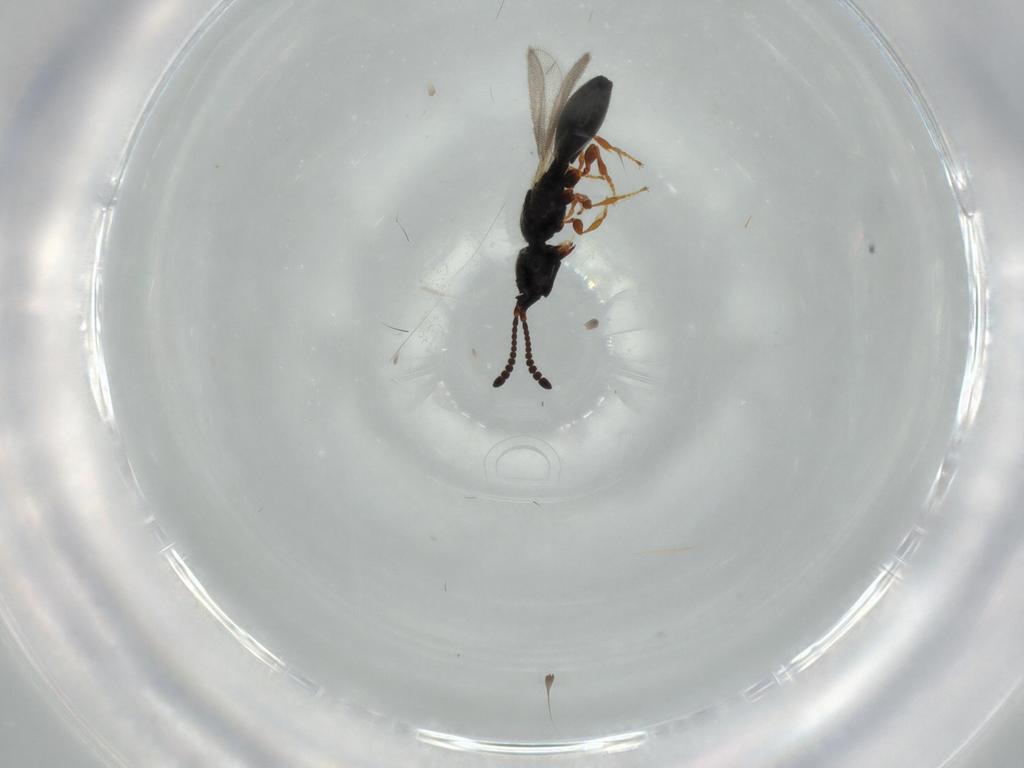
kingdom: Animalia
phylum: Arthropoda
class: Insecta
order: Hymenoptera
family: Diapriidae
